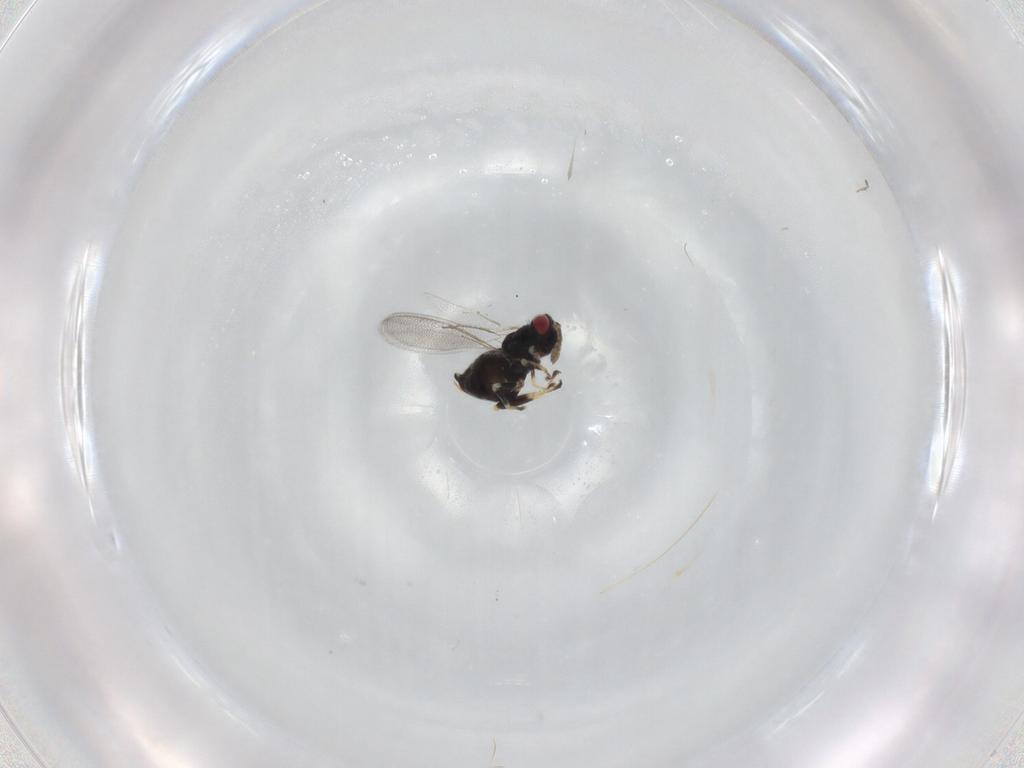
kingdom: Animalia
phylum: Arthropoda
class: Insecta
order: Hymenoptera
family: Eulophidae
